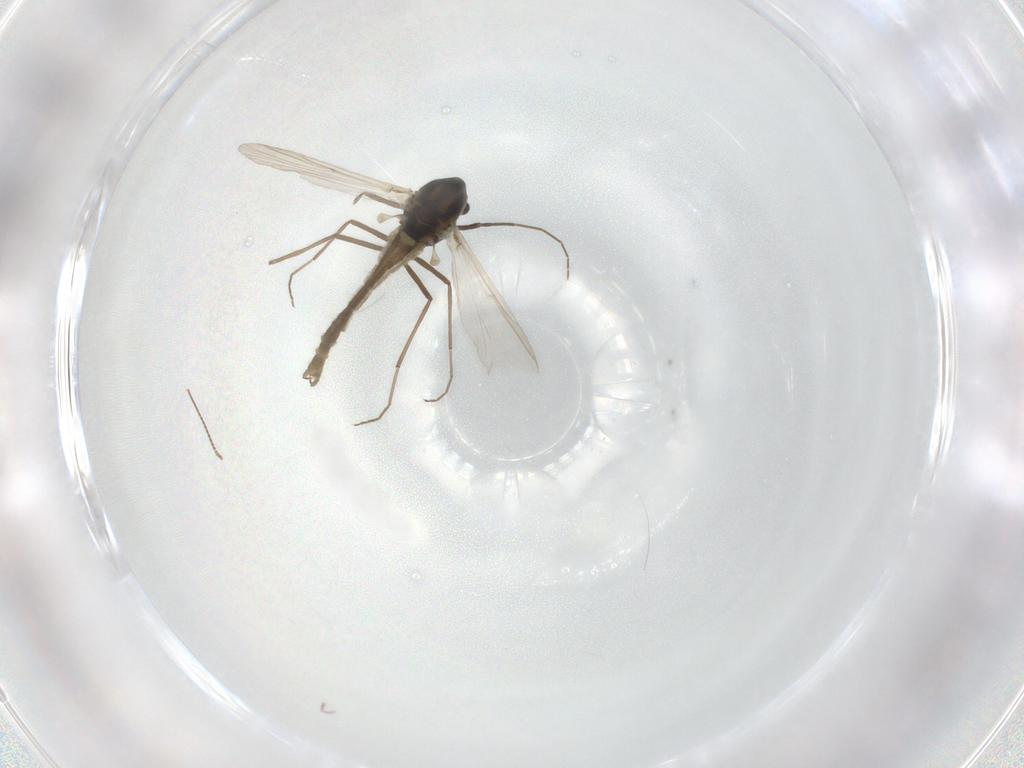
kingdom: Animalia
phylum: Arthropoda
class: Insecta
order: Diptera
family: Chironomidae
